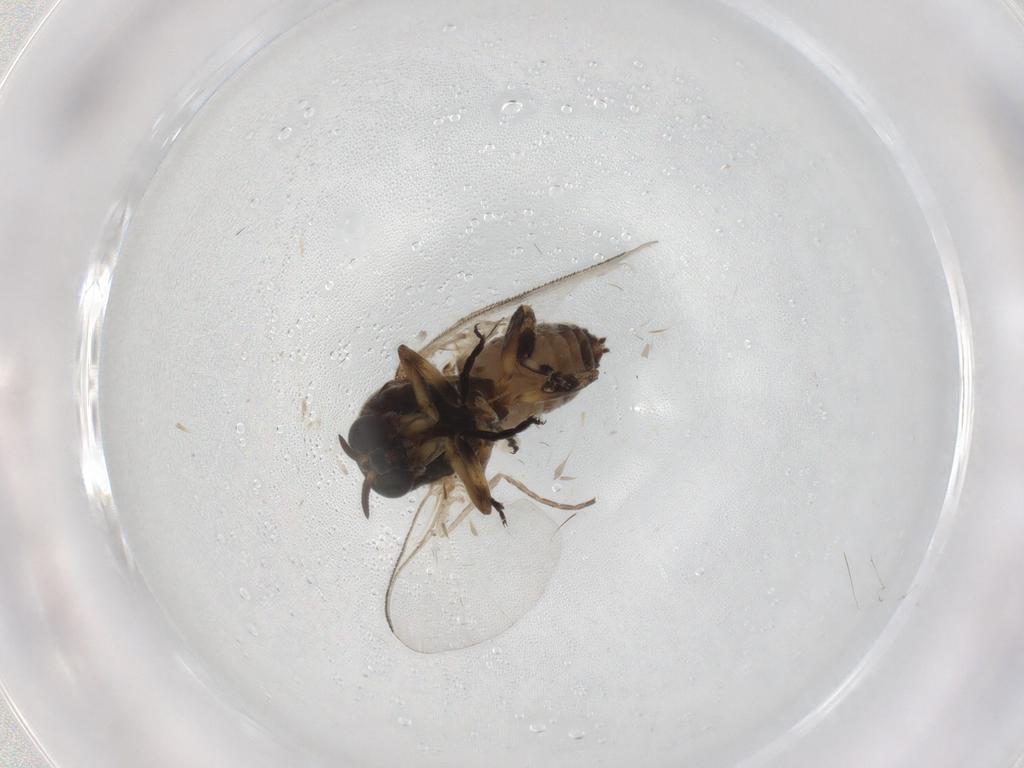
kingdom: Animalia
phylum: Arthropoda
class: Insecta
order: Diptera
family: Cecidomyiidae
